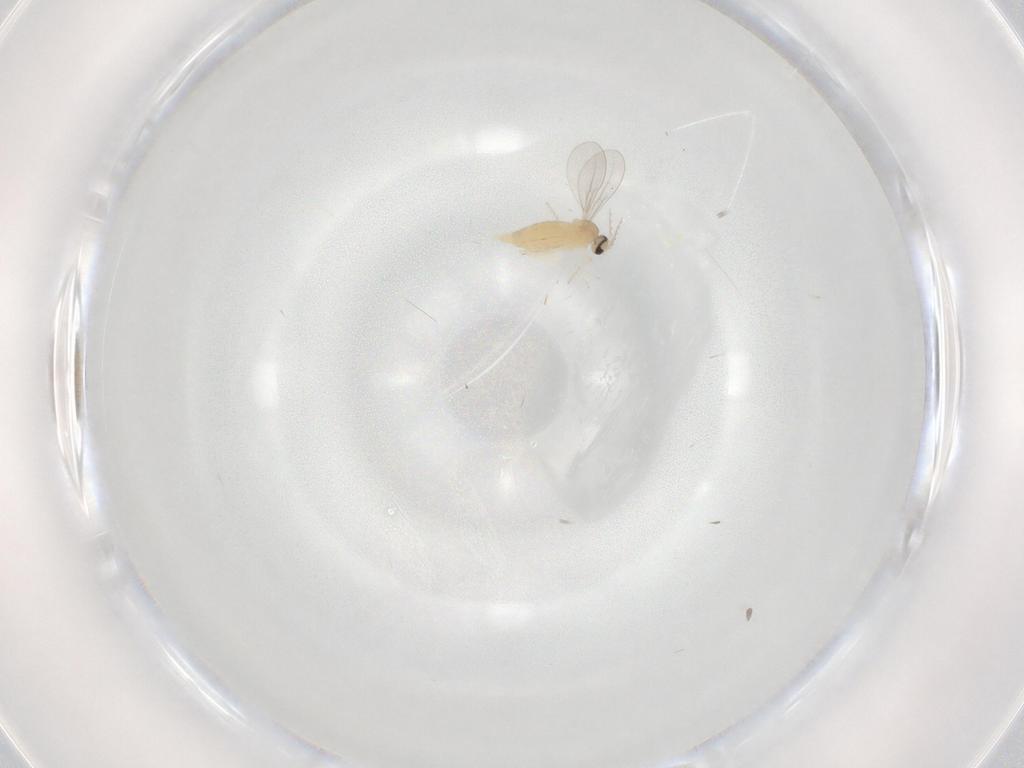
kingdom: Animalia
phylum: Arthropoda
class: Insecta
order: Diptera
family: Cecidomyiidae
